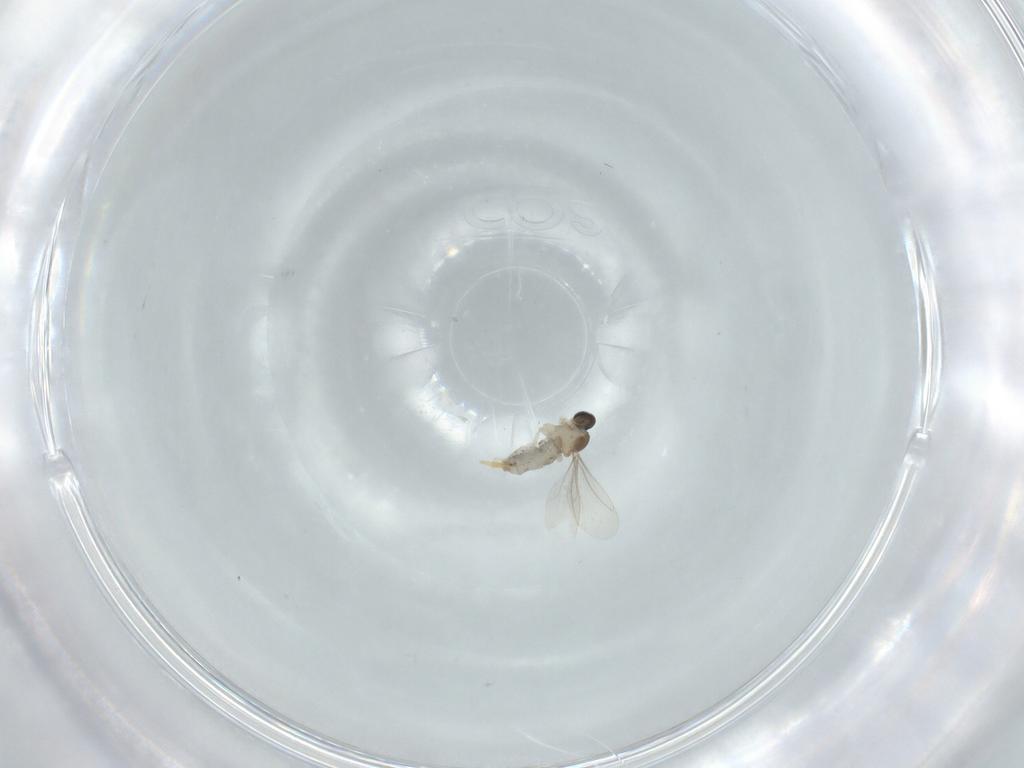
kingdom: Animalia
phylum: Arthropoda
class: Insecta
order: Diptera
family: Cecidomyiidae
